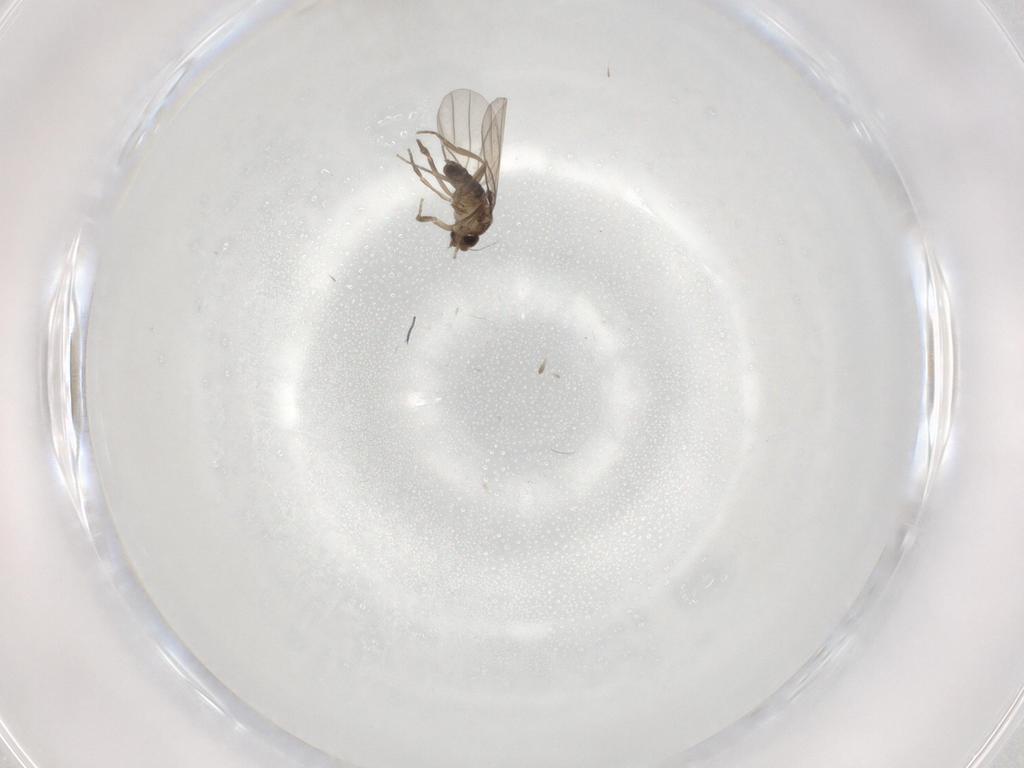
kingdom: Animalia
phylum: Arthropoda
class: Insecta
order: Diptera
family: Phoridae
